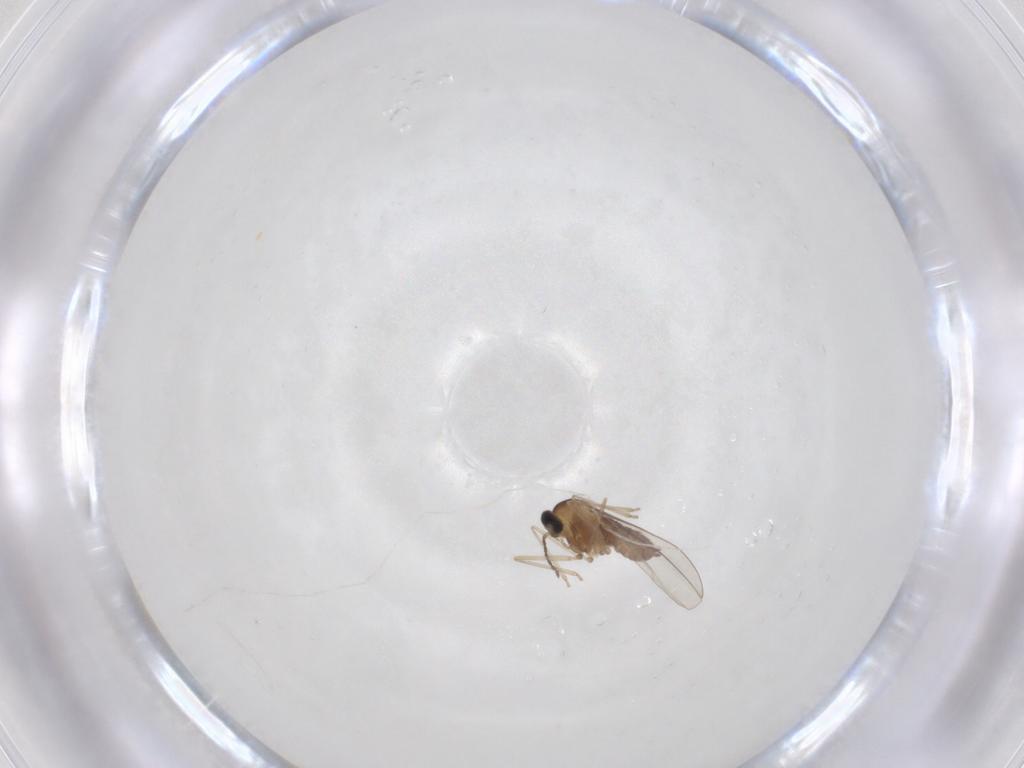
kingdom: Animalia
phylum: Arthropoda
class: Insecta
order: Diptera
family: Cecidomyiidae
